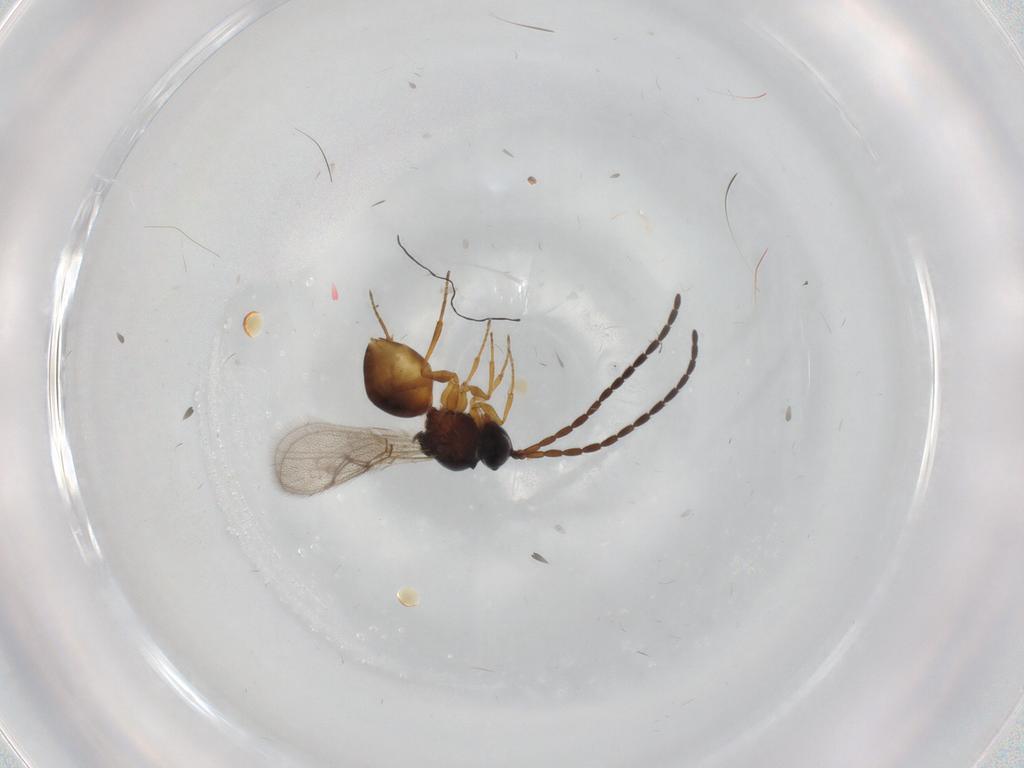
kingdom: Animalia
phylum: Arthropoda
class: Insecta
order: Hymenoptera
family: Figitidae
